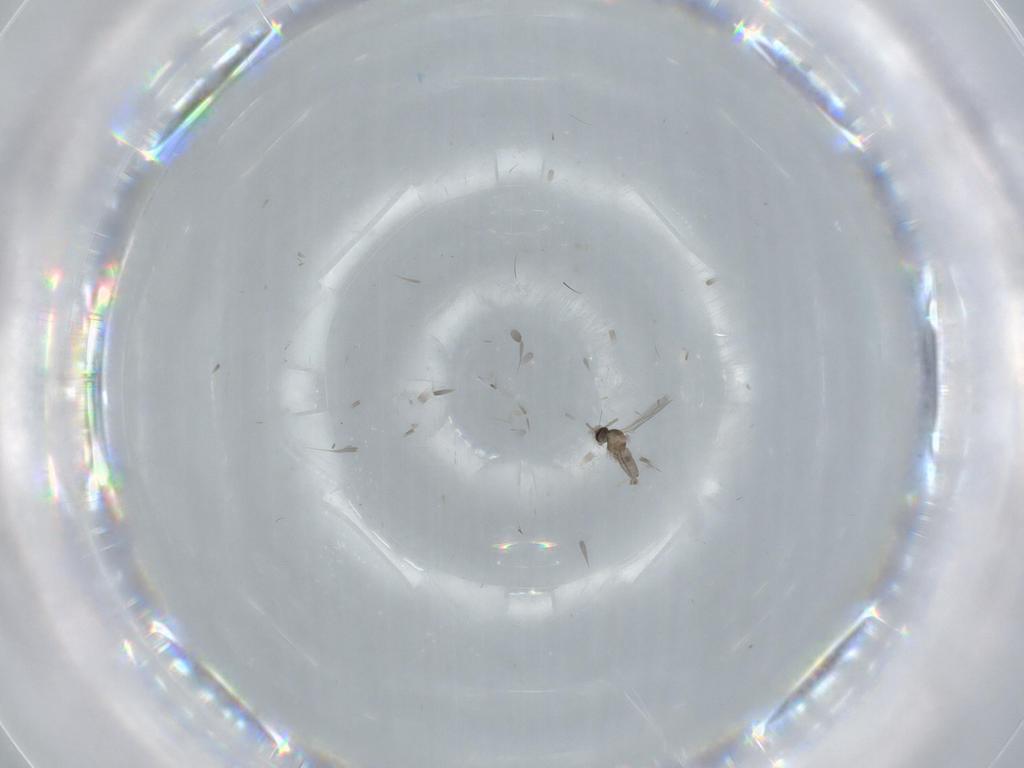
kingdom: Animalia
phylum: Arthropoda
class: Insecta
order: Diptera
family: Cecidomyiidae
